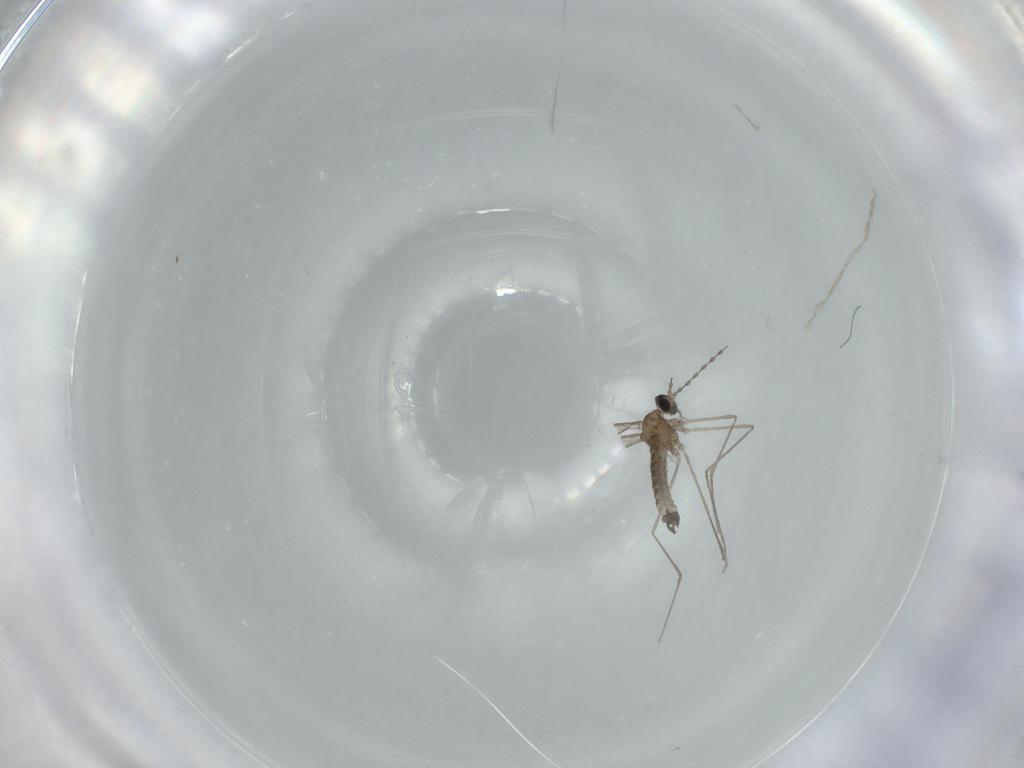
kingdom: Animalia
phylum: Arthropoda
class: Insecta
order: Diptera
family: Cecidomyiidae
